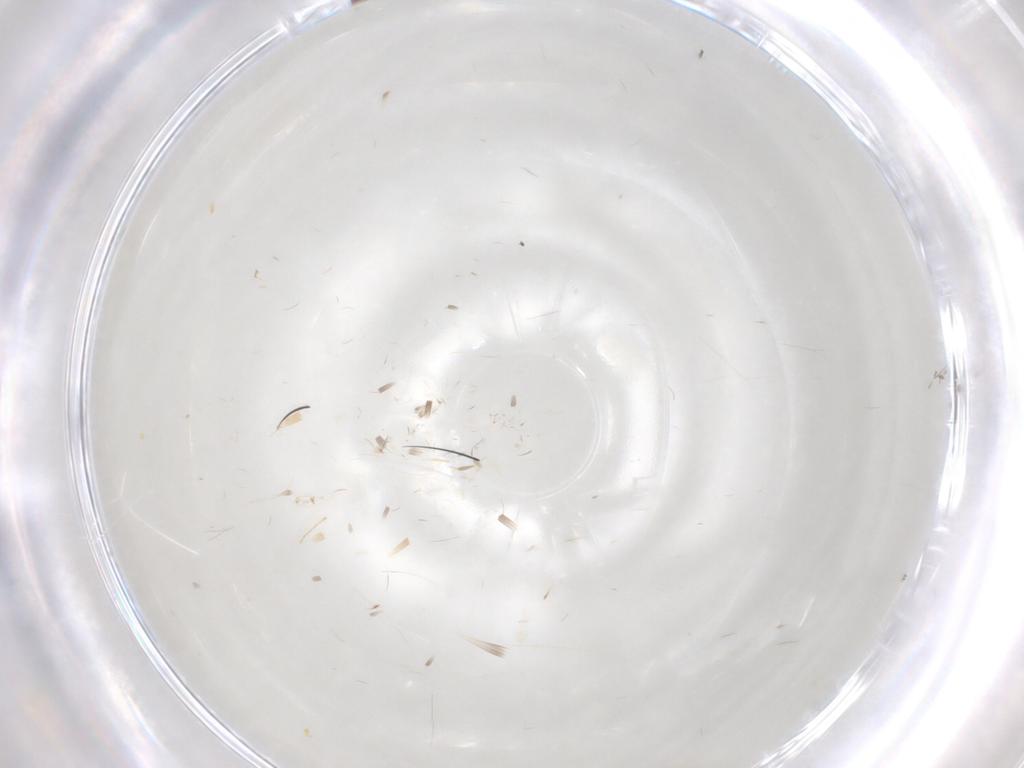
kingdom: Animalia
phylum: Arthropoda
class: Insecta
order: Diptera
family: Cecidomyiidae
